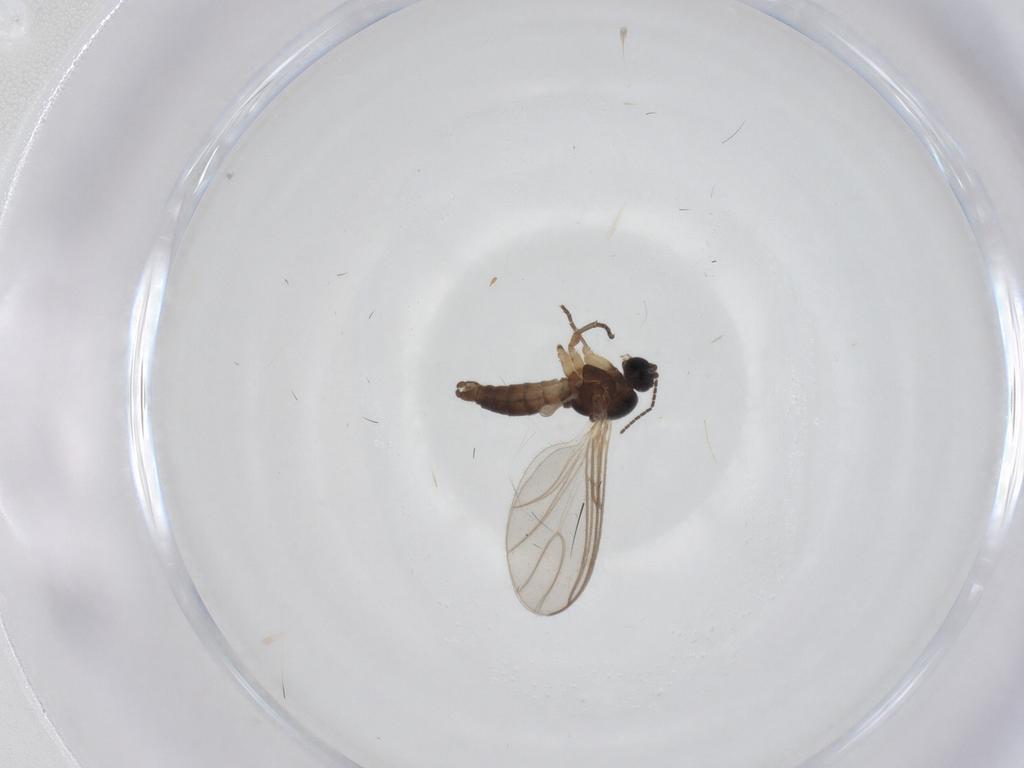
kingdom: Animalia
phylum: Arthropoda
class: Insecta
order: Diptera
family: Sciaridae
